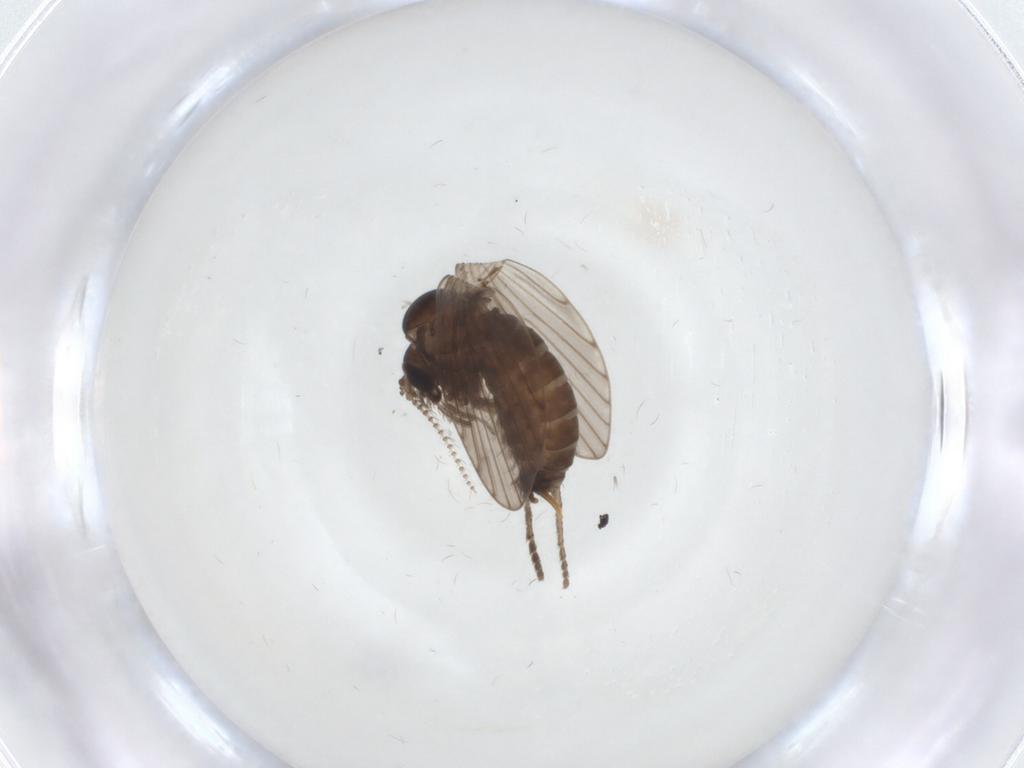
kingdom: Animalia
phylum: Arthropoda
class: Insecta
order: Diptera
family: Psychodidae
